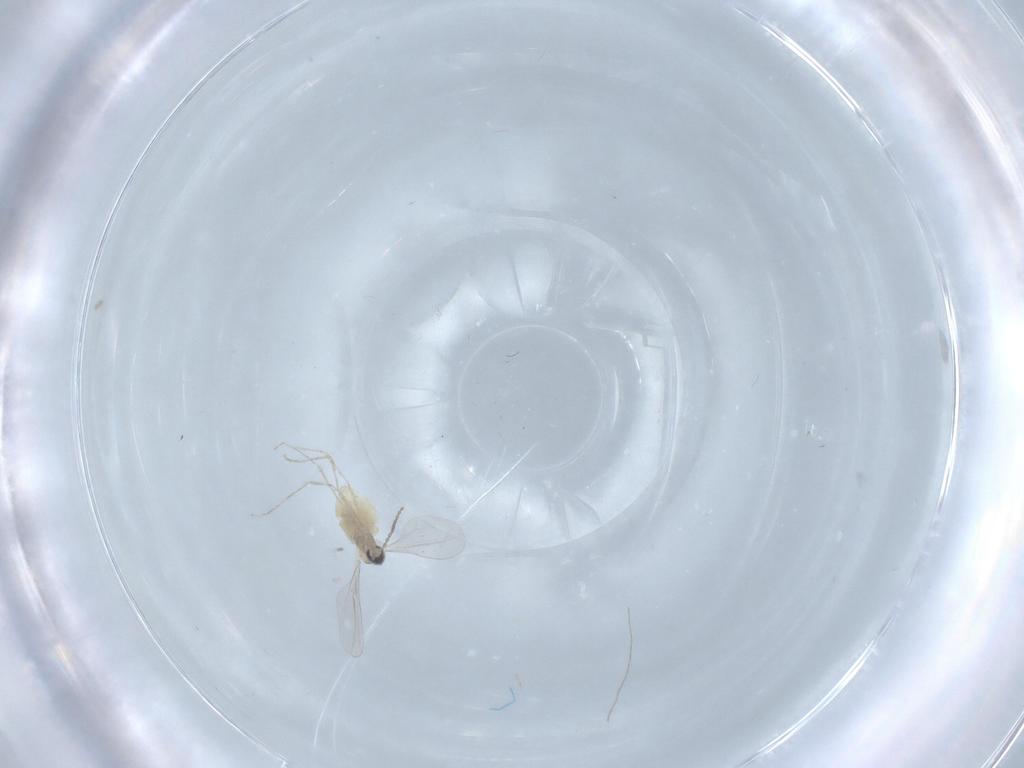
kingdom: Animalia
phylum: Arthropoda
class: Insecta
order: Diptera
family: Cecidomyiidae
